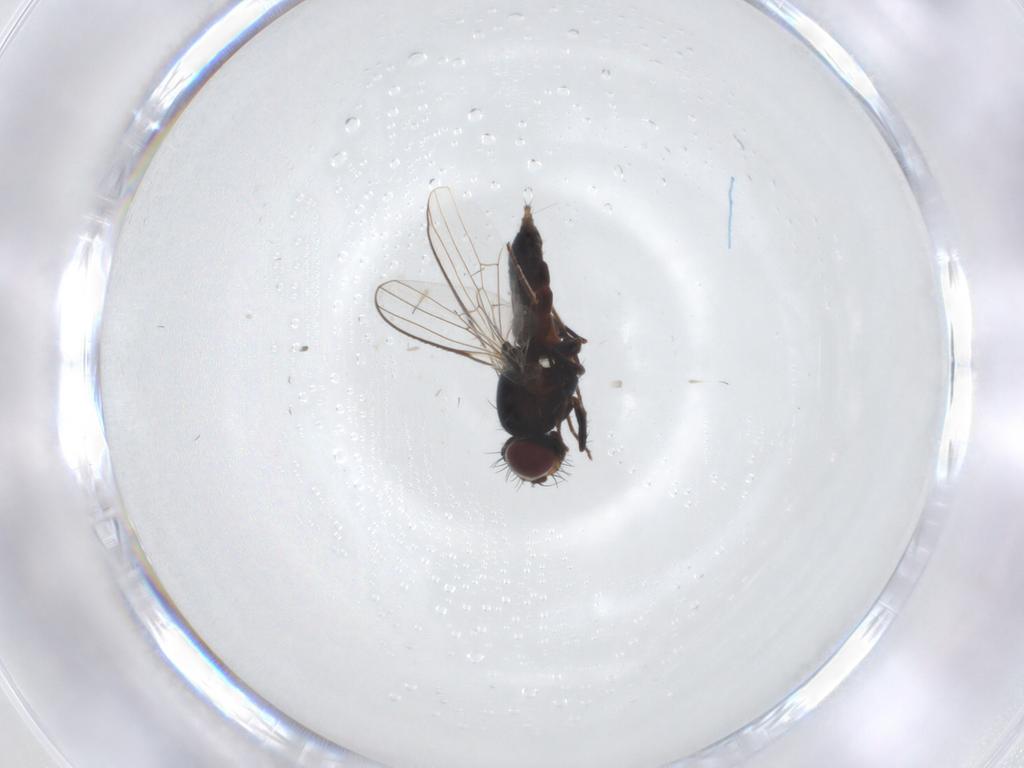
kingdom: Animalia
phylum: Arthropoda
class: Insecta
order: Diptera
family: Carnidae
